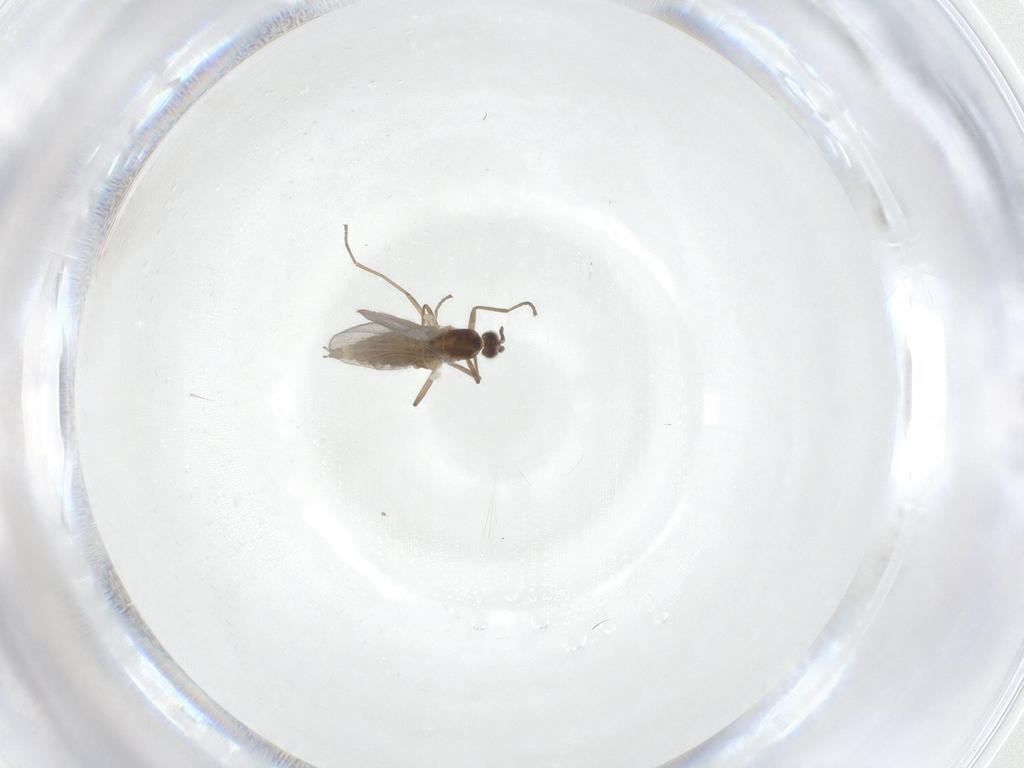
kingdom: Animalia
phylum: Arthropoda
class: Insecta
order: Diptera
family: Cecidomyiidae
